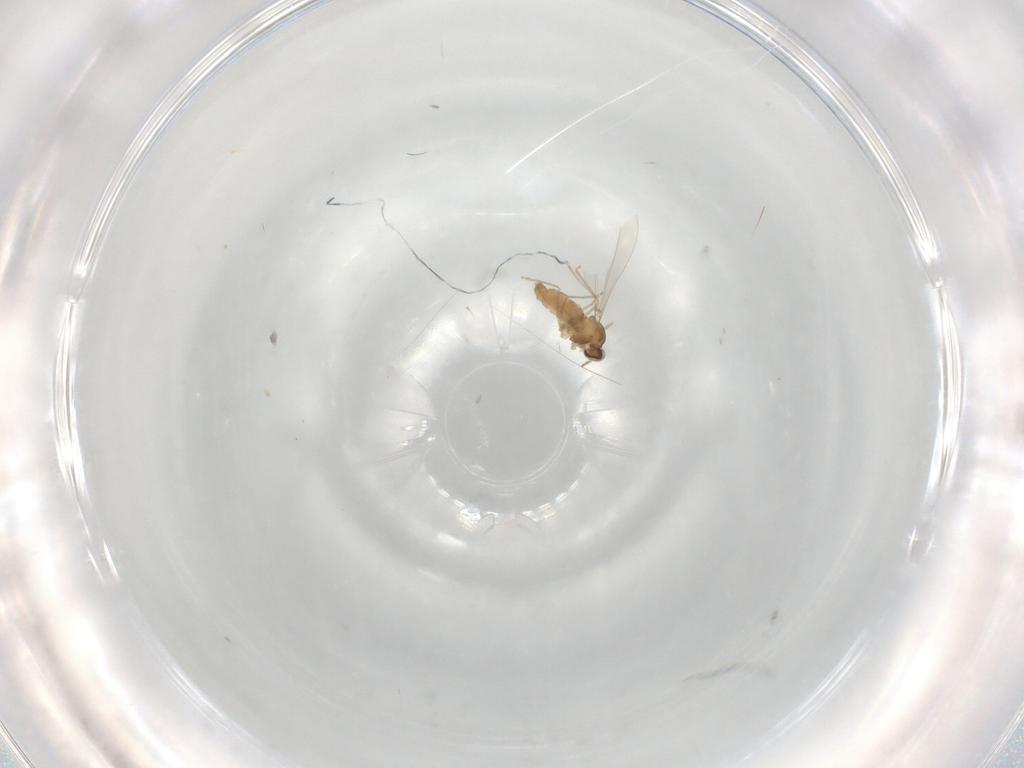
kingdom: Animalia
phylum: Arthropoda
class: Insecta
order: Diptera
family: Cecidomyiidae
